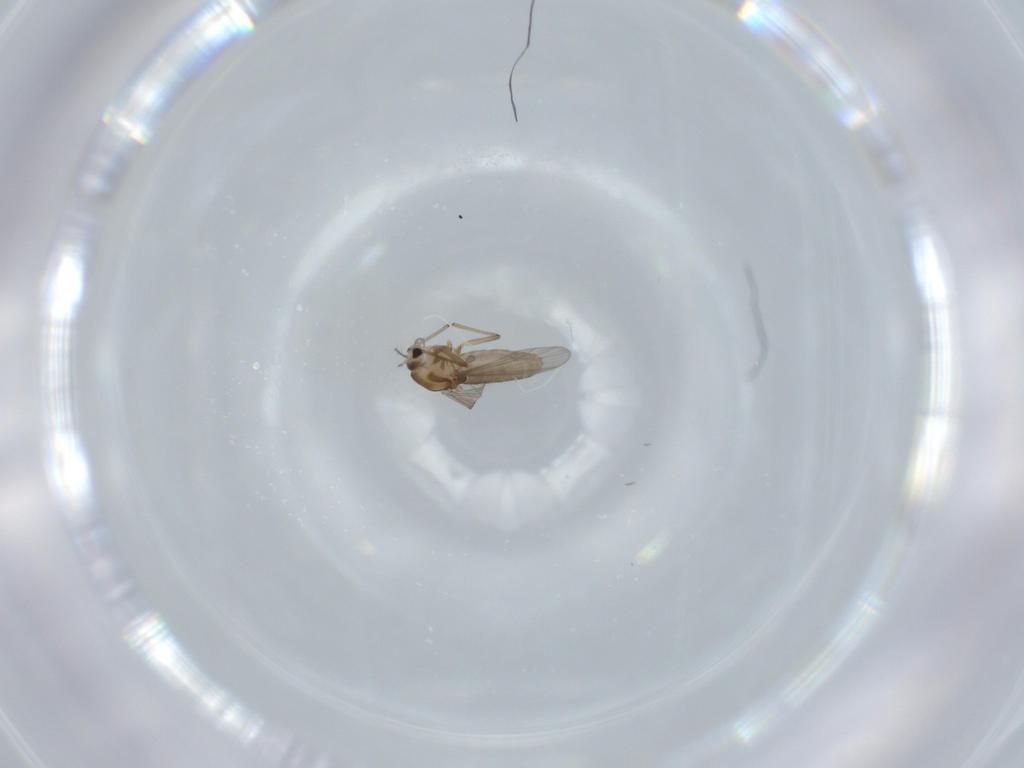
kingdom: Animalia
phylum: Arthropoda
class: Insecta
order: Diptera
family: Chironomidae
